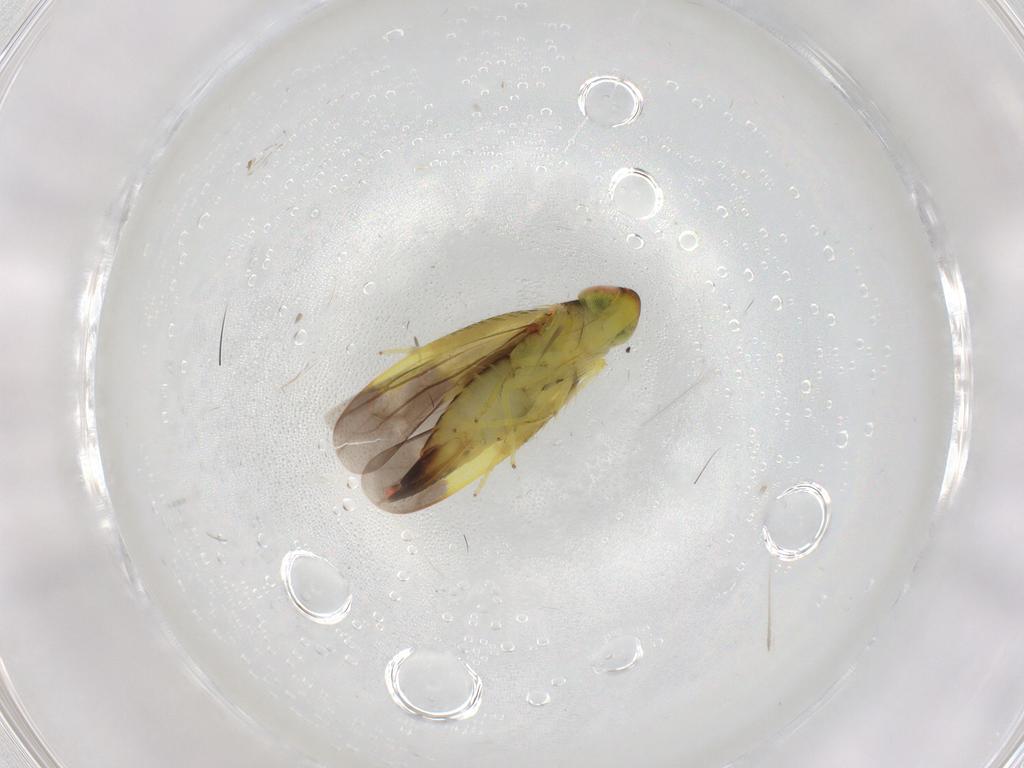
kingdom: Animalia
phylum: Arthropoda
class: Insecta
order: Hemiptera
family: Cicadellidae
